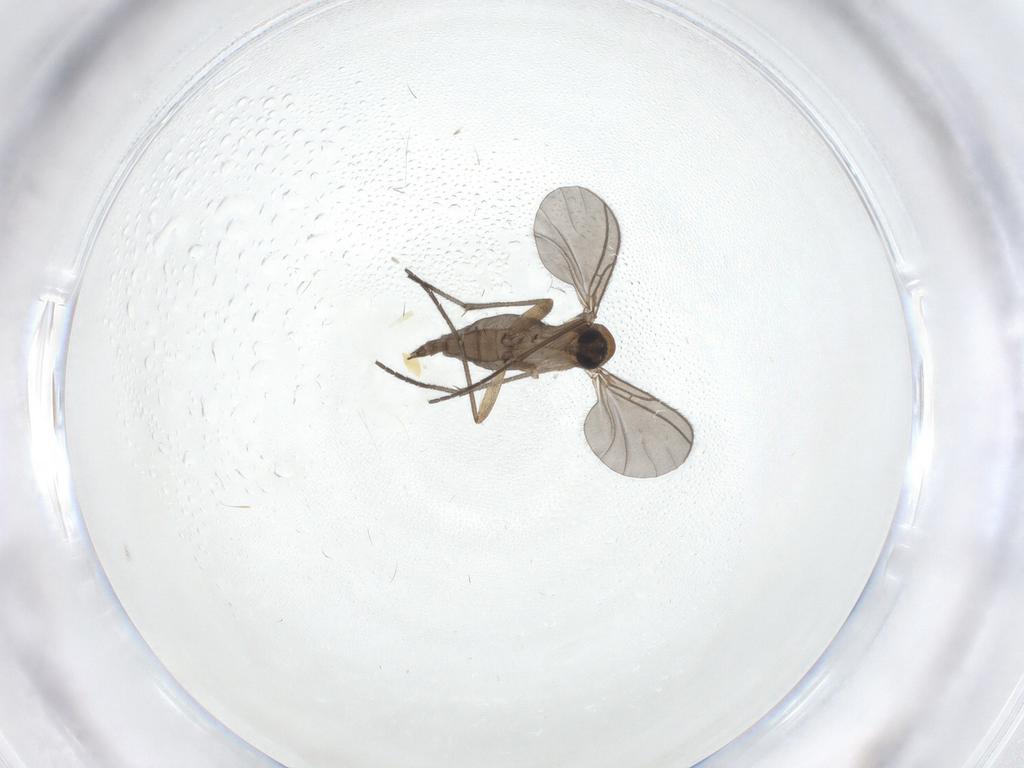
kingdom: Animalia
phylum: Arthropoda
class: Insecta
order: Diptera
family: Sciaridae
